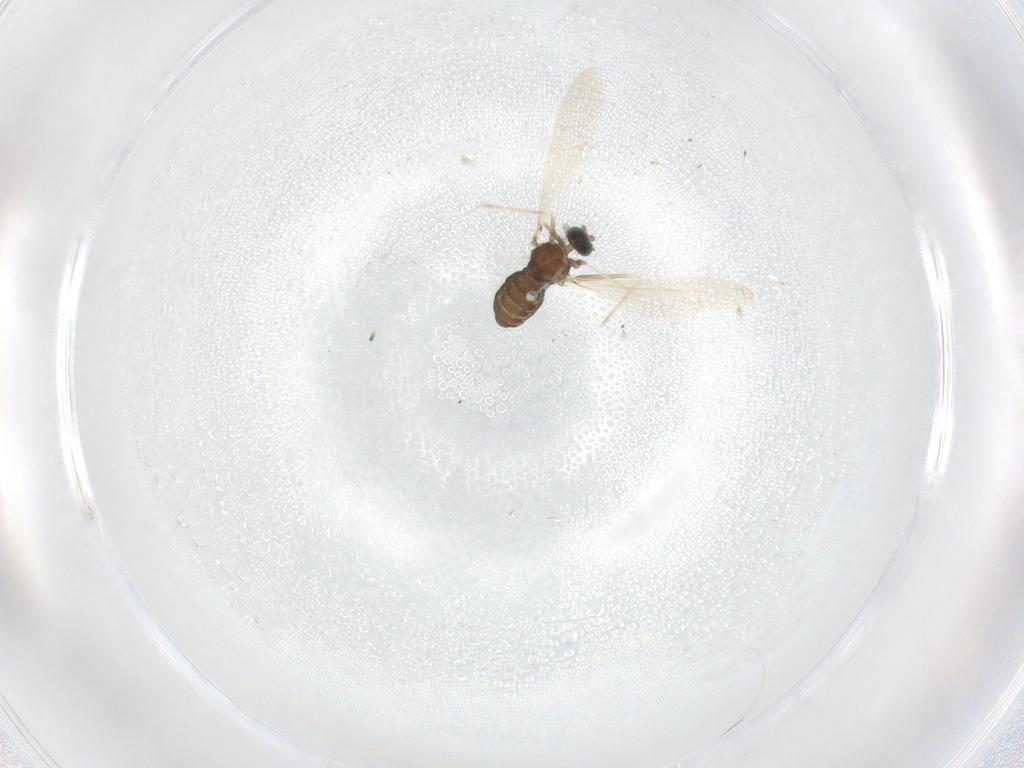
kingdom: Animalia
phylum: Arthropoda
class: Insecta
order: Diptera
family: Cecidomyiidae
